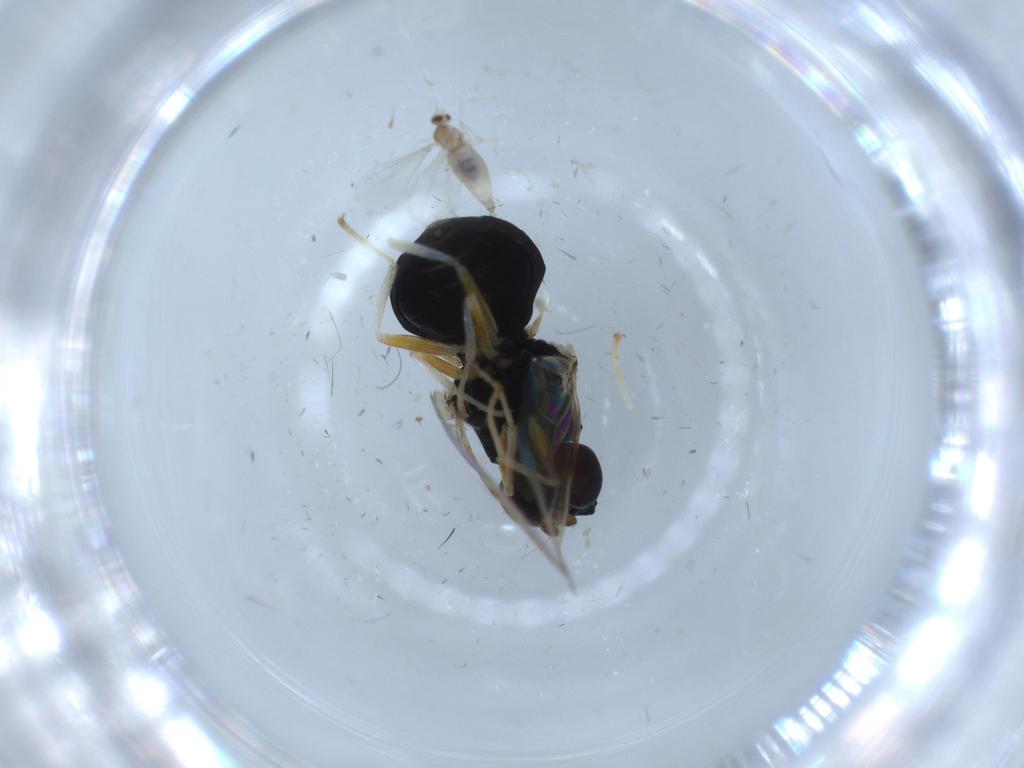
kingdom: Animalia
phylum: Arthropoda
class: Insecta
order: Diptera
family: Stratiomyidae
